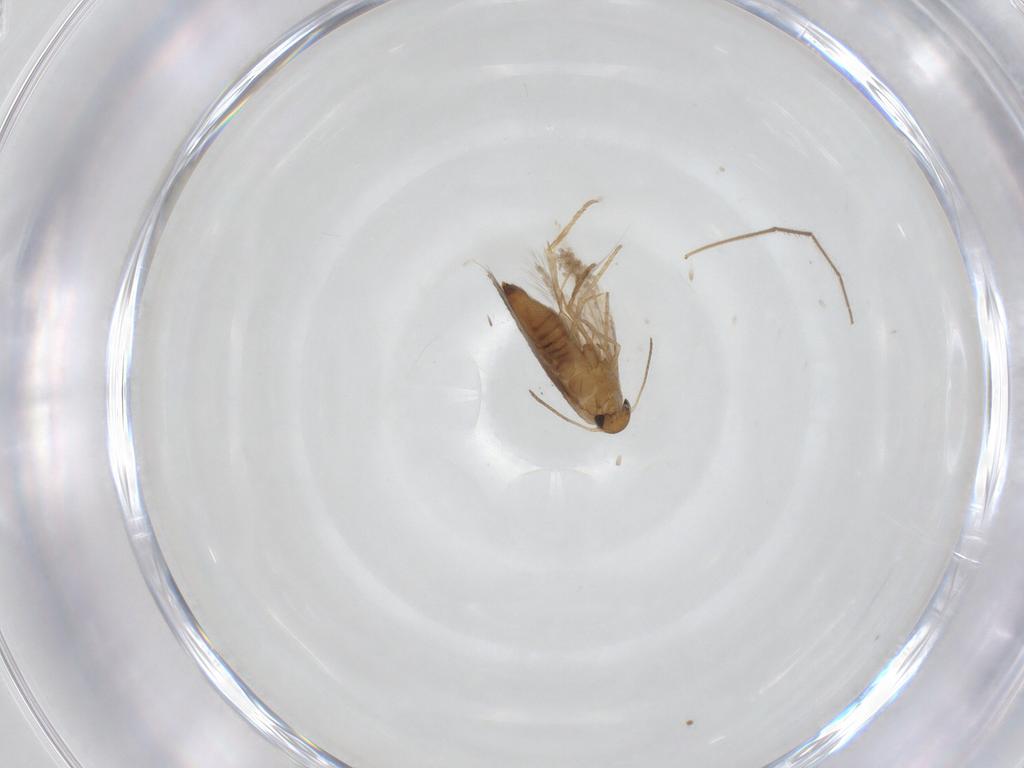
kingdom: Animalia
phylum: Arthropoda
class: Insecta
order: Lepidoptera
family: Heliozelidae
